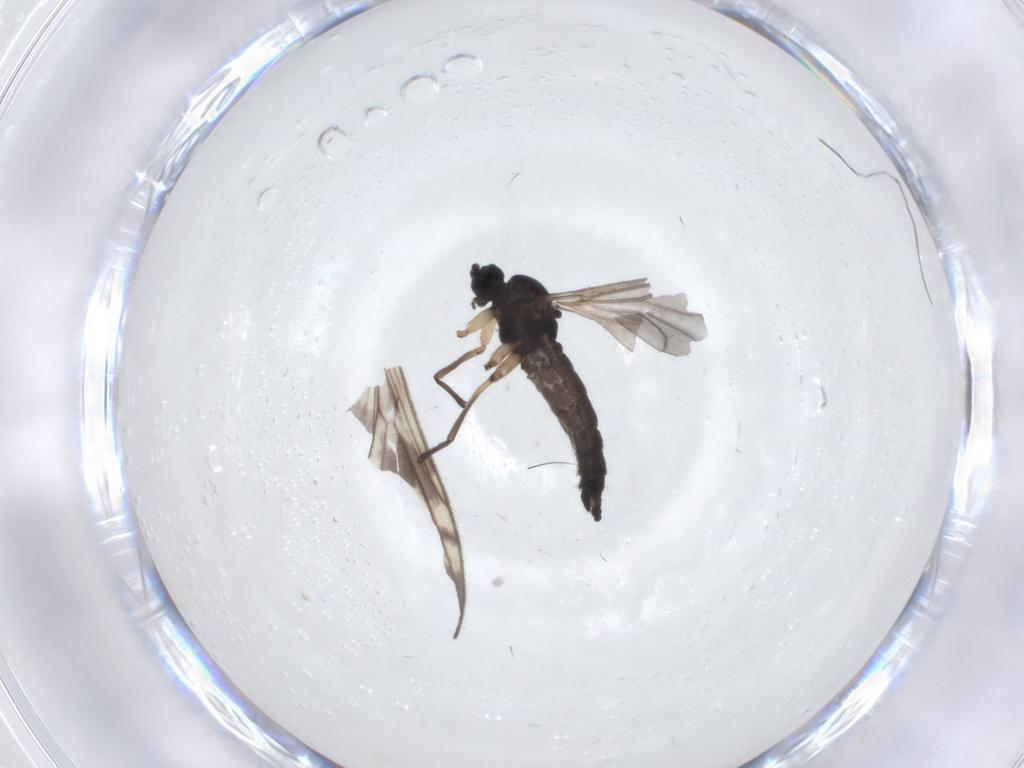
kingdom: Animalia
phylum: Arthropoda
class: Insecta
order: Diptera
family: Sciaridae
